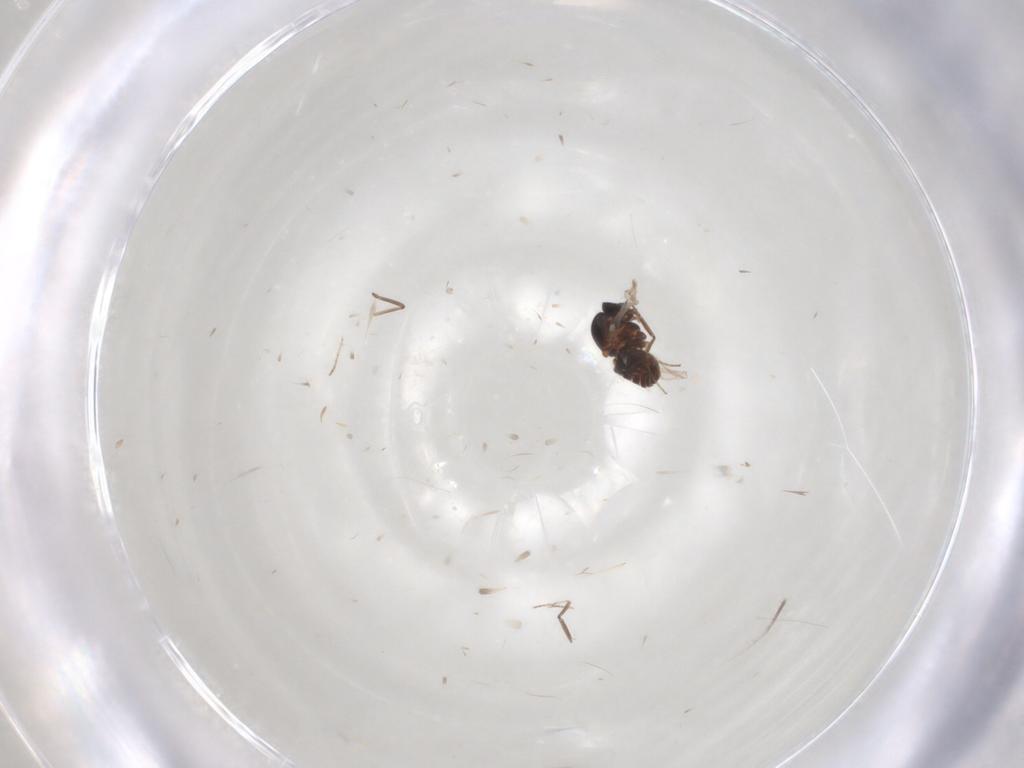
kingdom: Animalia
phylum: Arthropoda
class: Insecta
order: Diptera
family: Ceratopogonidae
